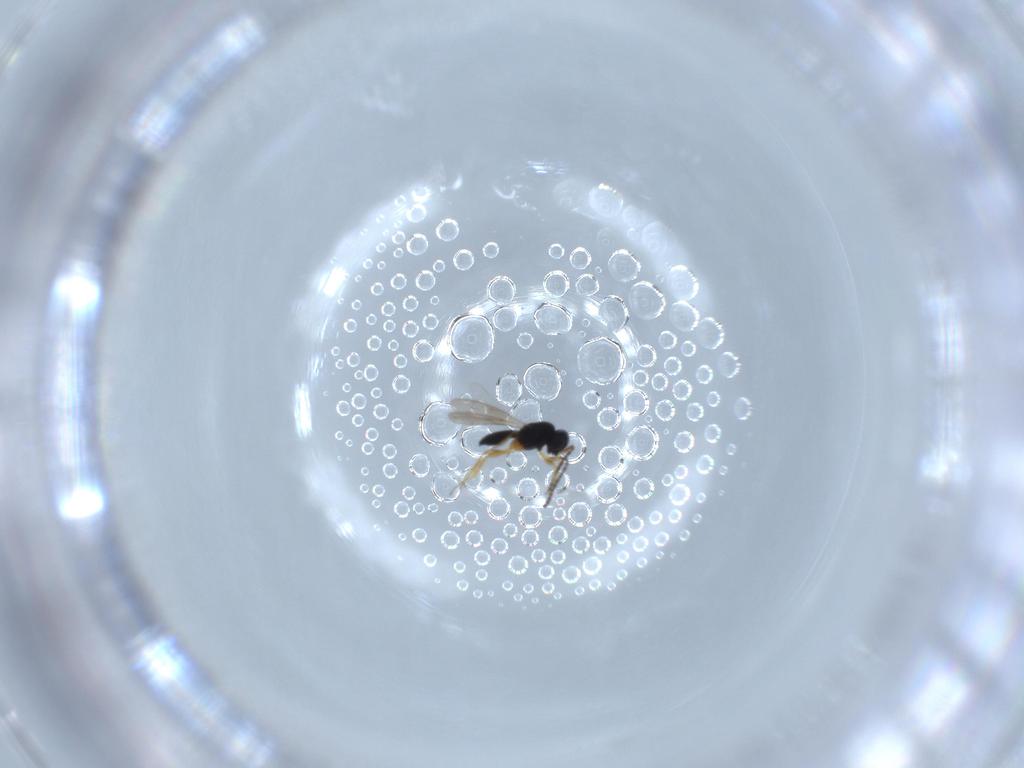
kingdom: Animalia
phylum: Arthropoda
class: Insecta
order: Hymenoptera
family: Scelionidae
